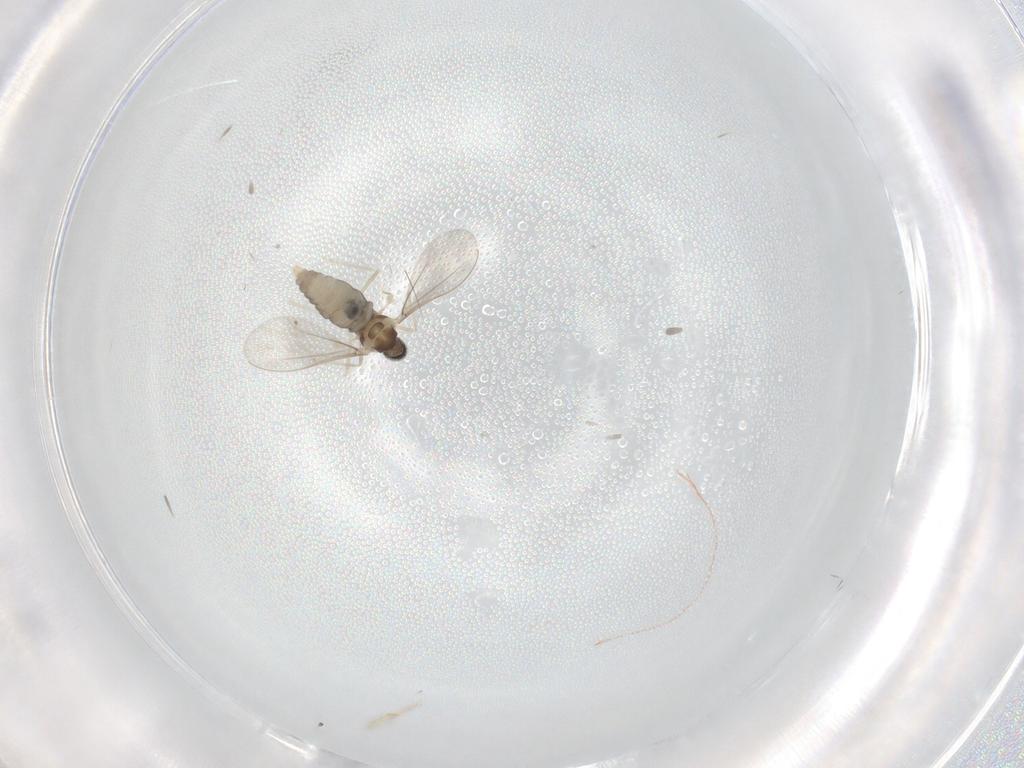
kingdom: Animalia
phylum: Arthropoda
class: Insecta
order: Diptera
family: Cecidomyiidae
